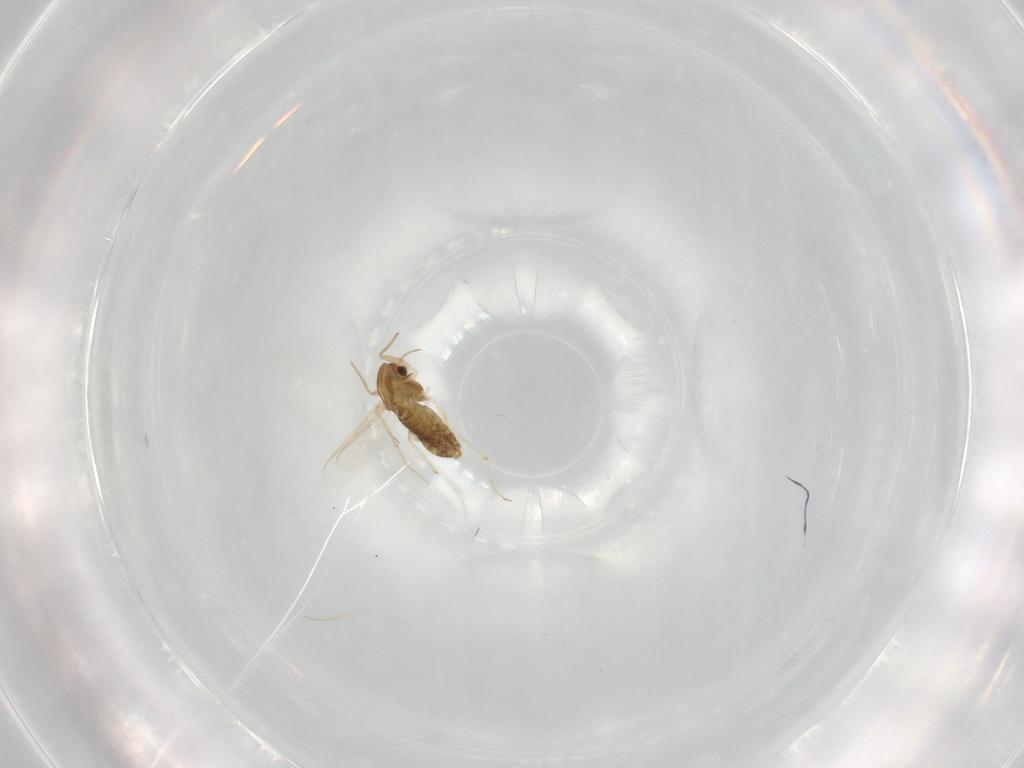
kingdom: Animalia
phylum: Arthropoda
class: Insecta
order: Diptera
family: Chironomidae
